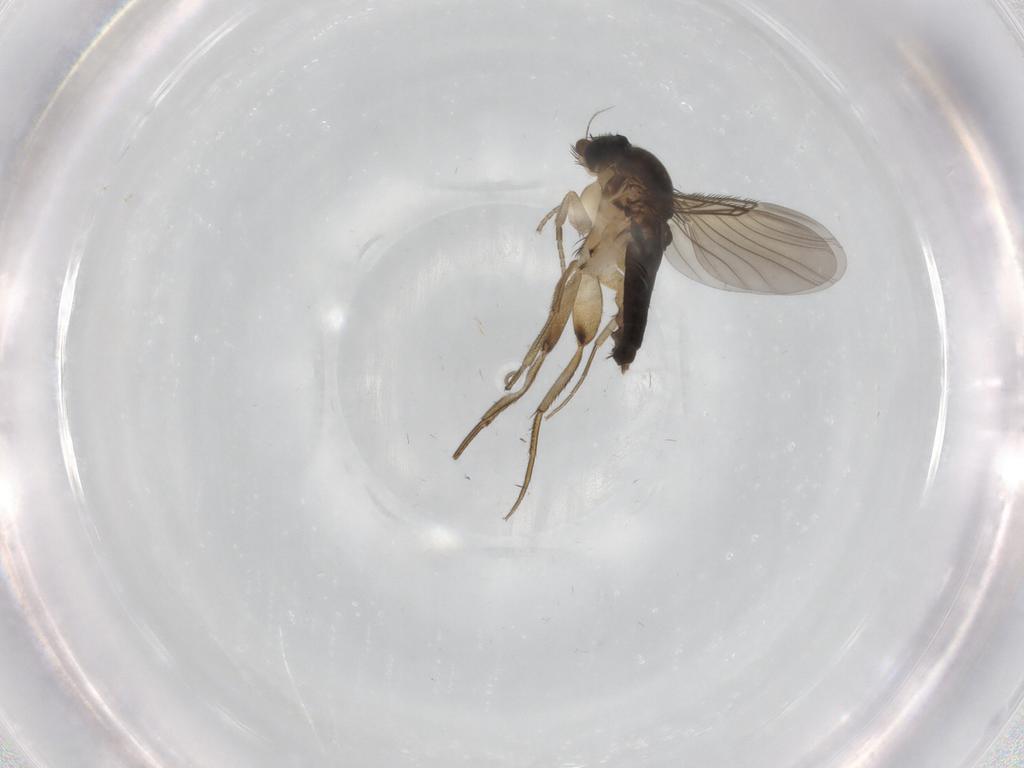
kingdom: Animalia
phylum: Arthropoda
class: Insecta
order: Diptera
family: Phoridae
